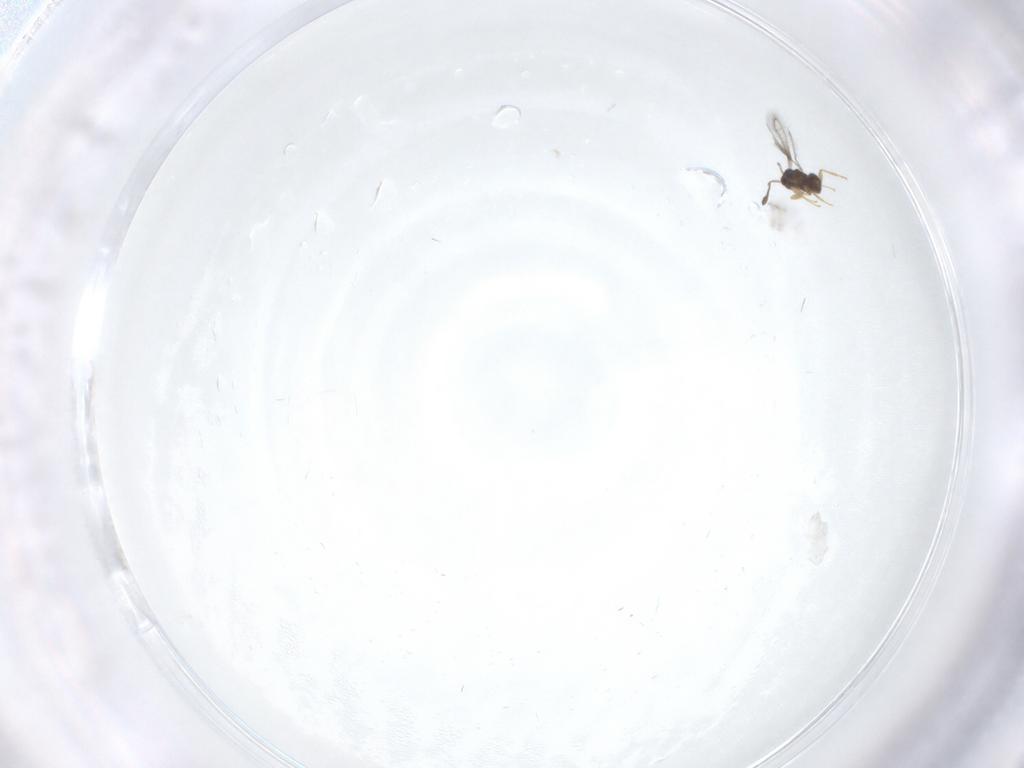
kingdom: Animalia
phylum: Arthropoda
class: Insecta
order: Hymenoptera
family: Mymaridae
